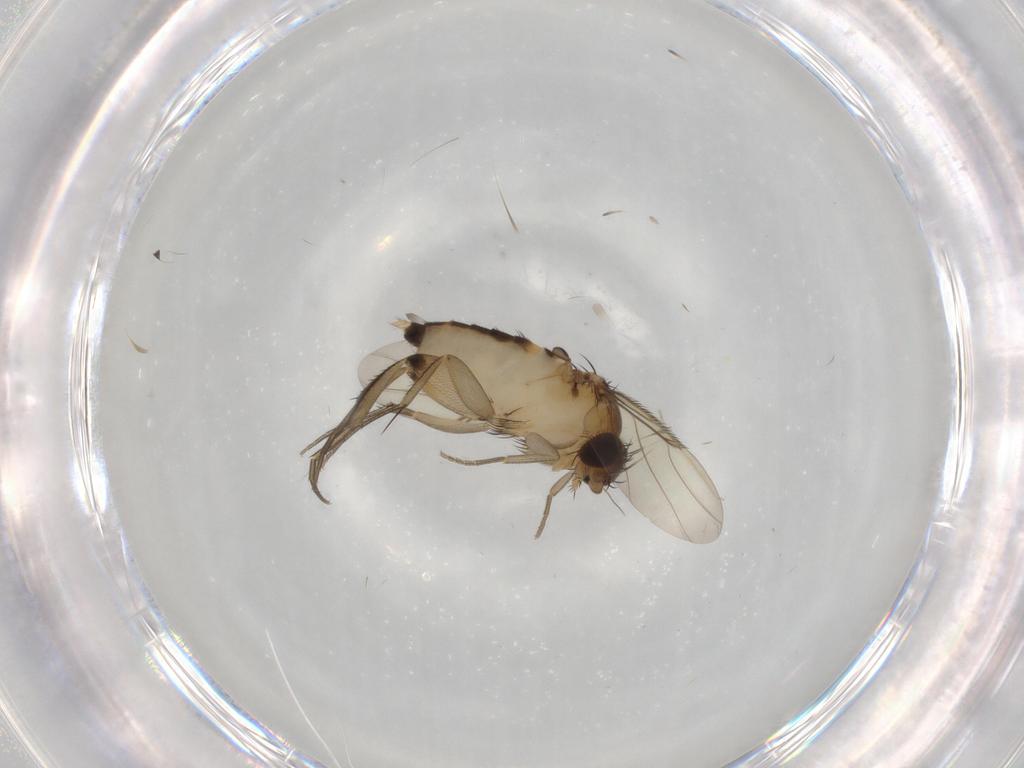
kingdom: Animalia
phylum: Arthropoda
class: Insecta
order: Diptera
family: Phoridae
